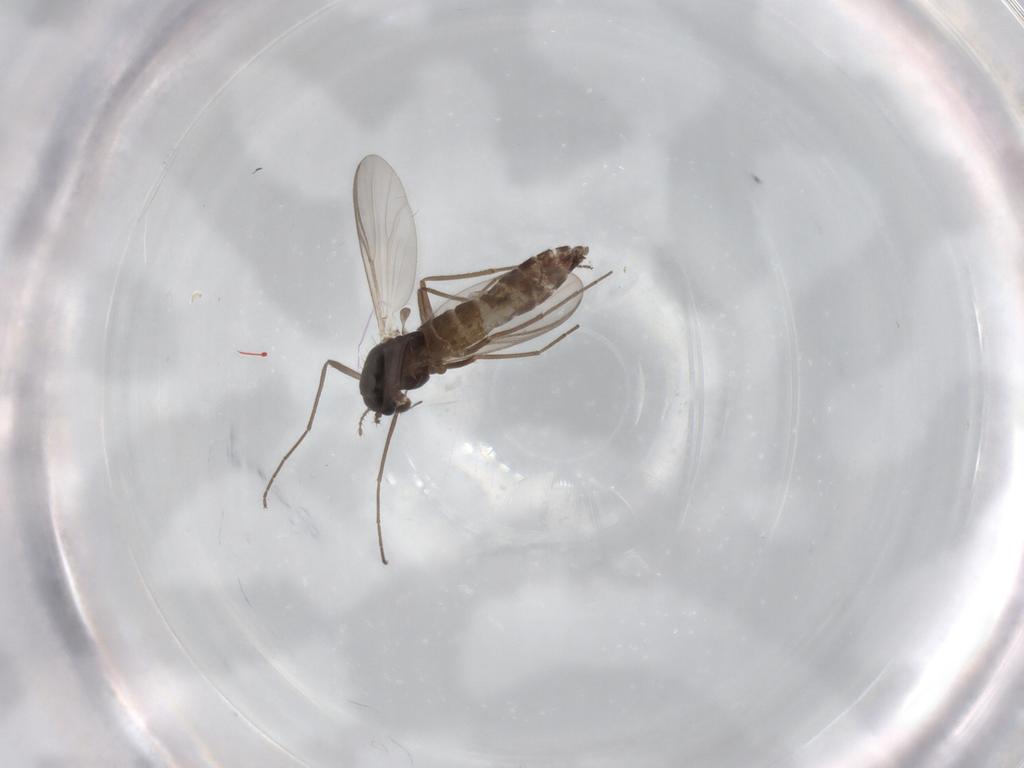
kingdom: Animalia
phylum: Arthropoda
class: Insecta
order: Diptera
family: Chironomidae
